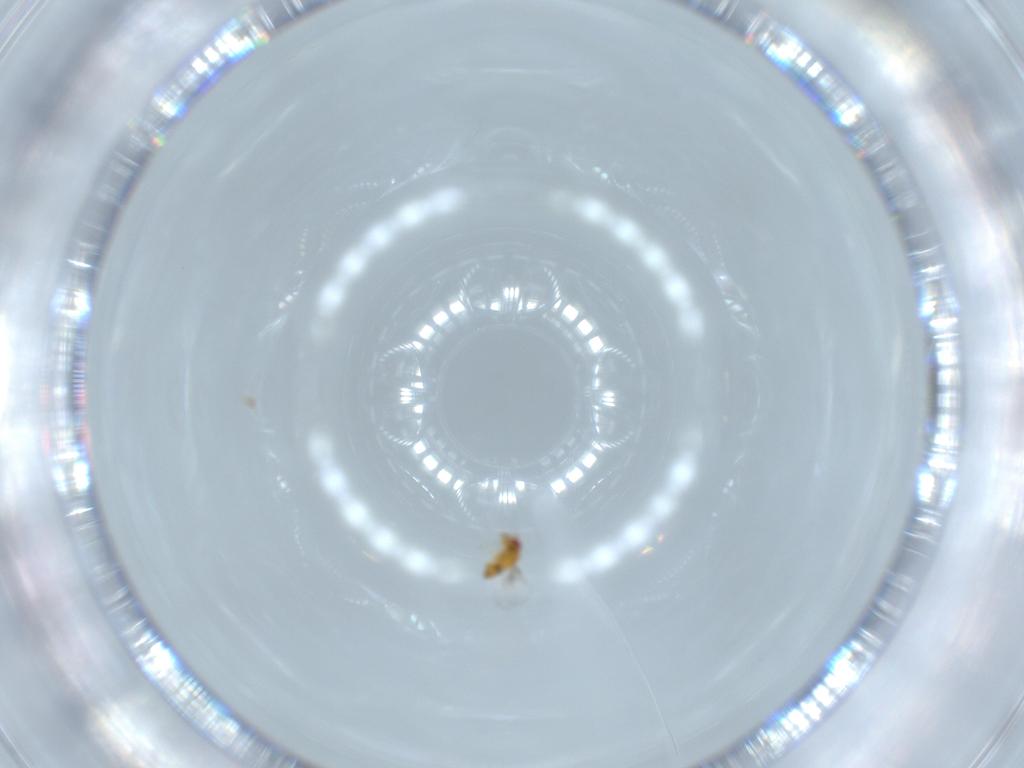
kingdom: Animalia
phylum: Arthropoda
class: Insecta
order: Hymenoptera
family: Trichogrammatidae
